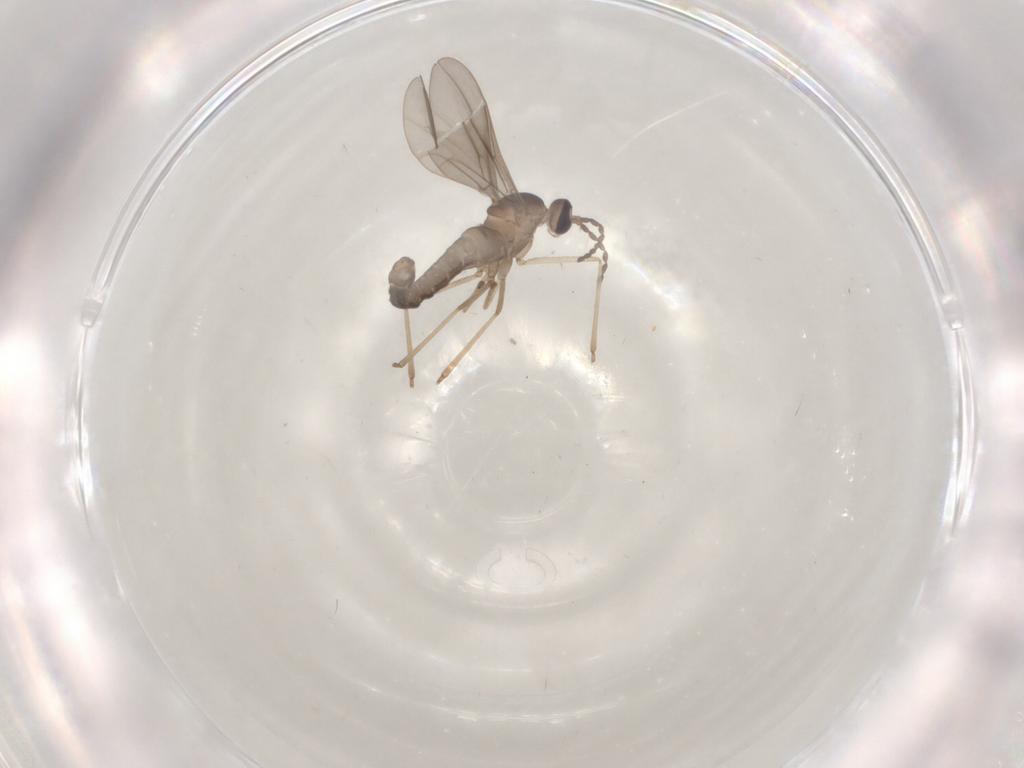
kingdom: Animalia
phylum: Arthropoda
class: Insecta
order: Diptera
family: Cecidomyiidae
